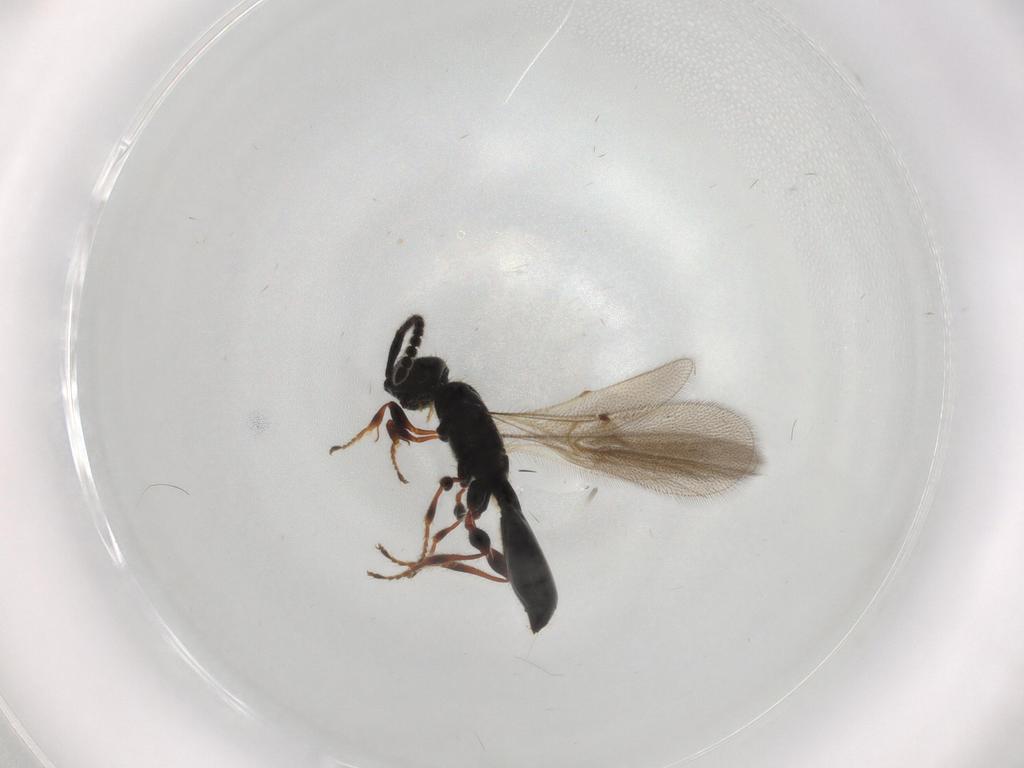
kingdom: Animalia
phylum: Arthropoda
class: Insecta
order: Hymenoptera
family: Diapriidae
